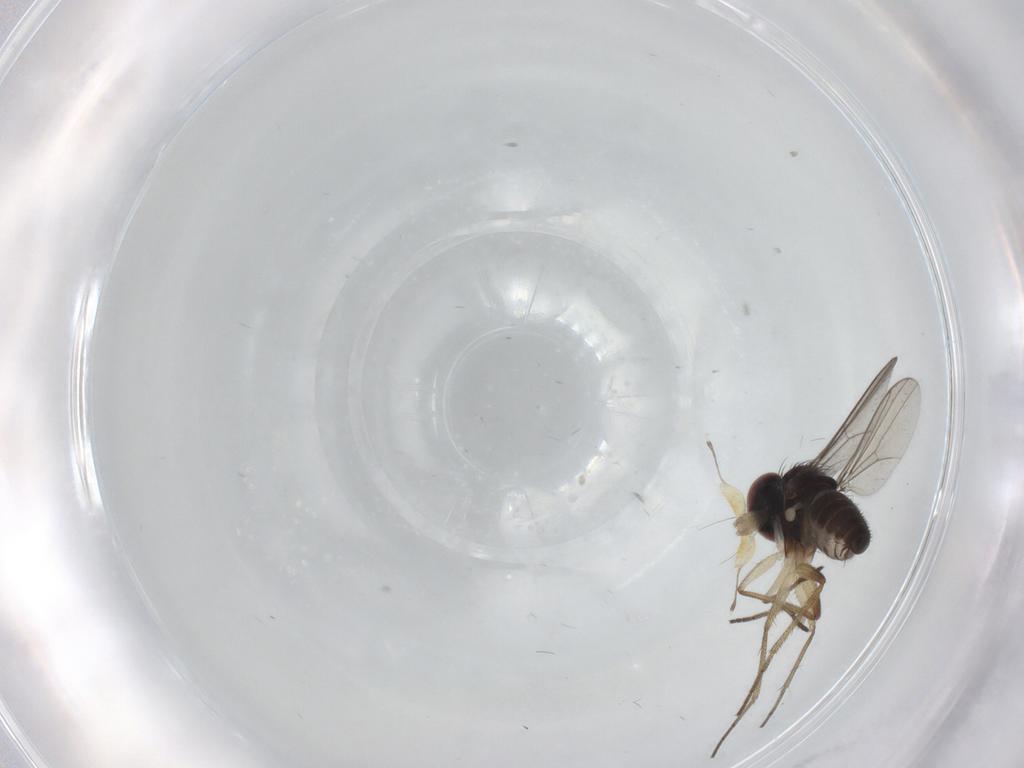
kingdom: Animalia
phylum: Arthropoda
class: Insecta
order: Diptera
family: Dolichopodidae
